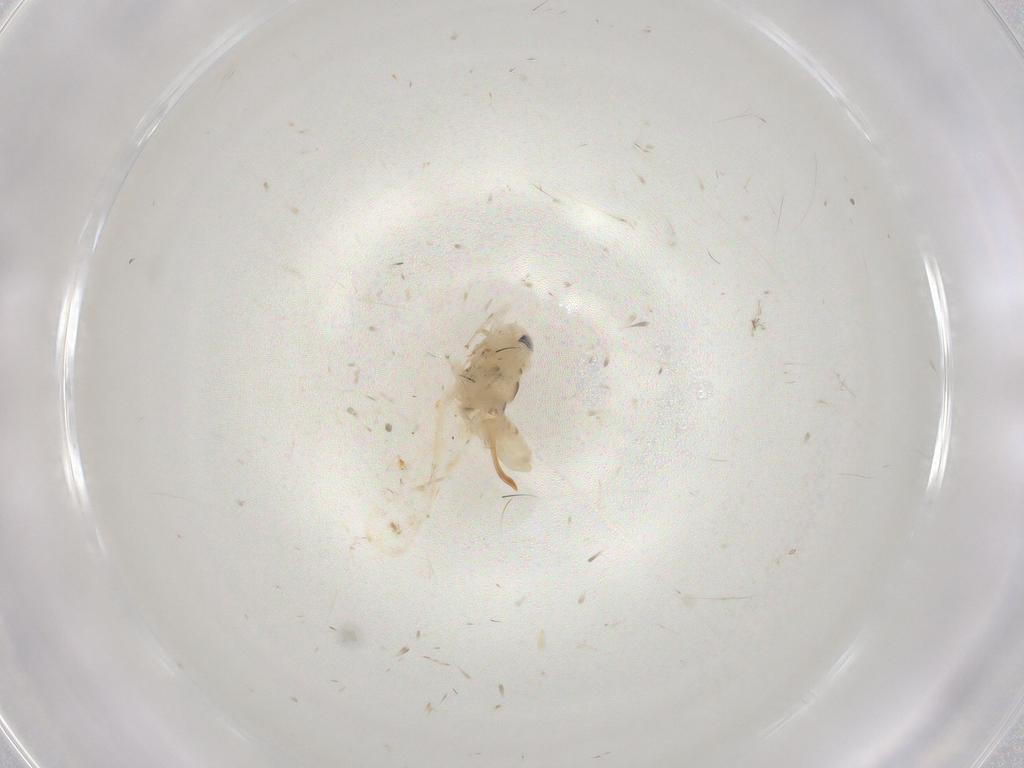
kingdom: Animalia
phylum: Arthropoda
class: Insecta
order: Hemiptera
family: Cicadellidae
